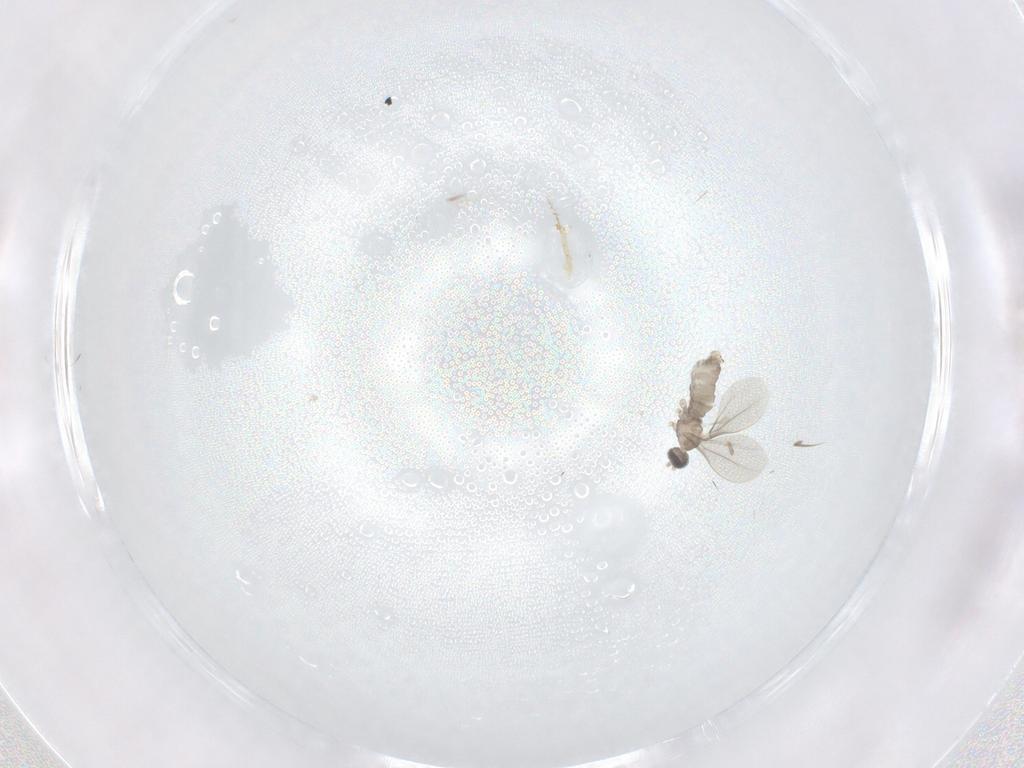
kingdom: Animalia
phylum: Arthropoda
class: Insecta
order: Diptera
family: Cecidomyiidae
